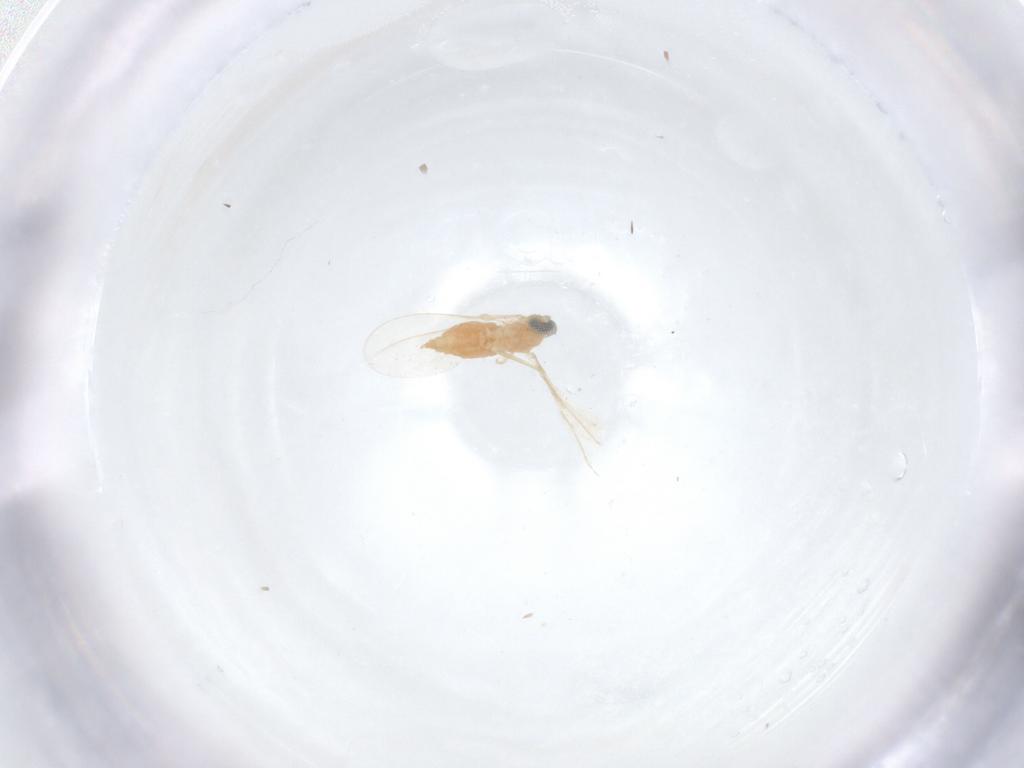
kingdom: Animalia
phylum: Arthropoda
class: Insecta
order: Diptera
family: Cecidomyiidae
